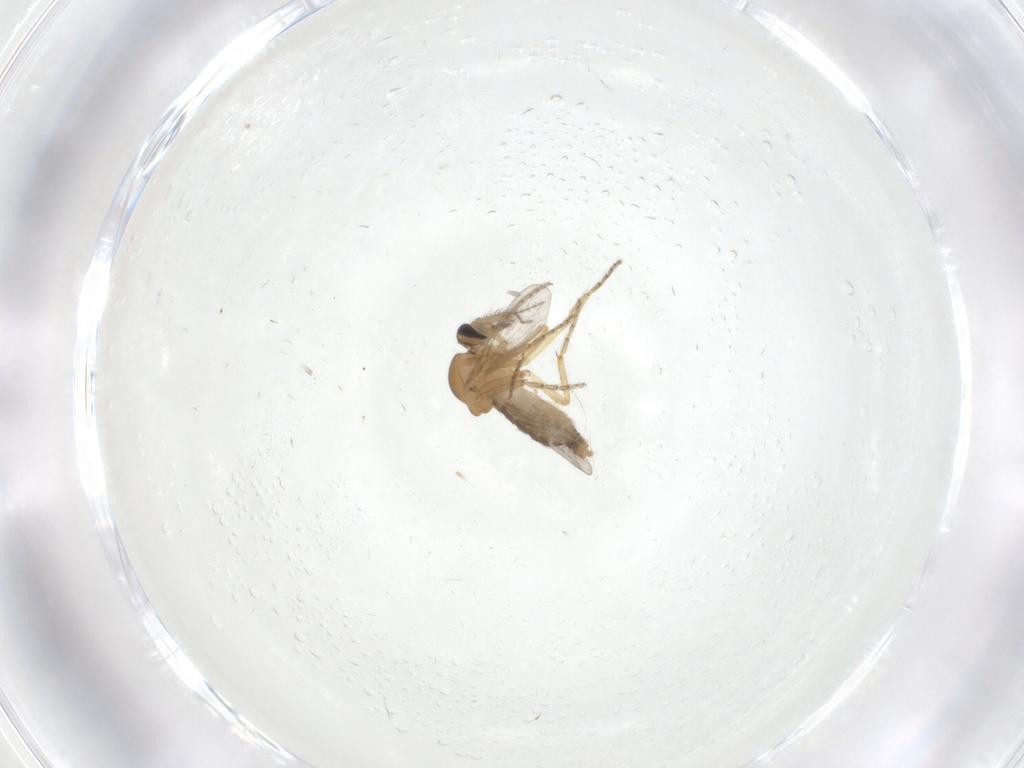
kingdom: Animalia
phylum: Arthropoda
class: Insecta
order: Diptera
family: Ceratopogonidae
